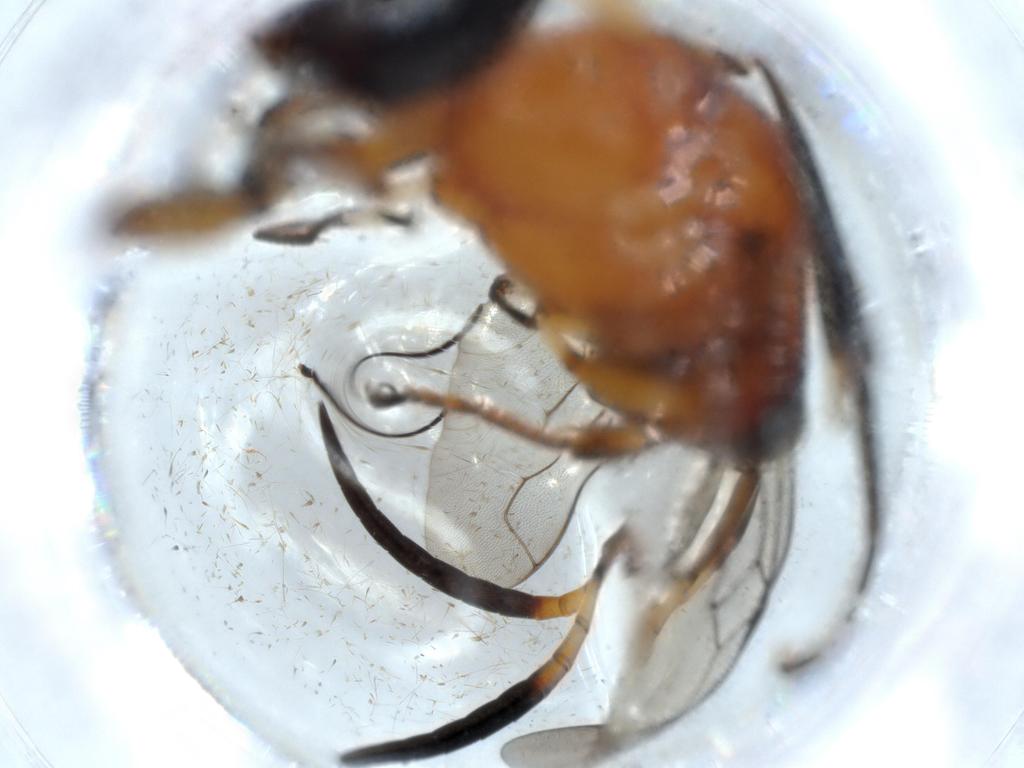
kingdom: Animalia
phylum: Arthropoda
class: Insecta
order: Hymenoptera
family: Evaniidae
